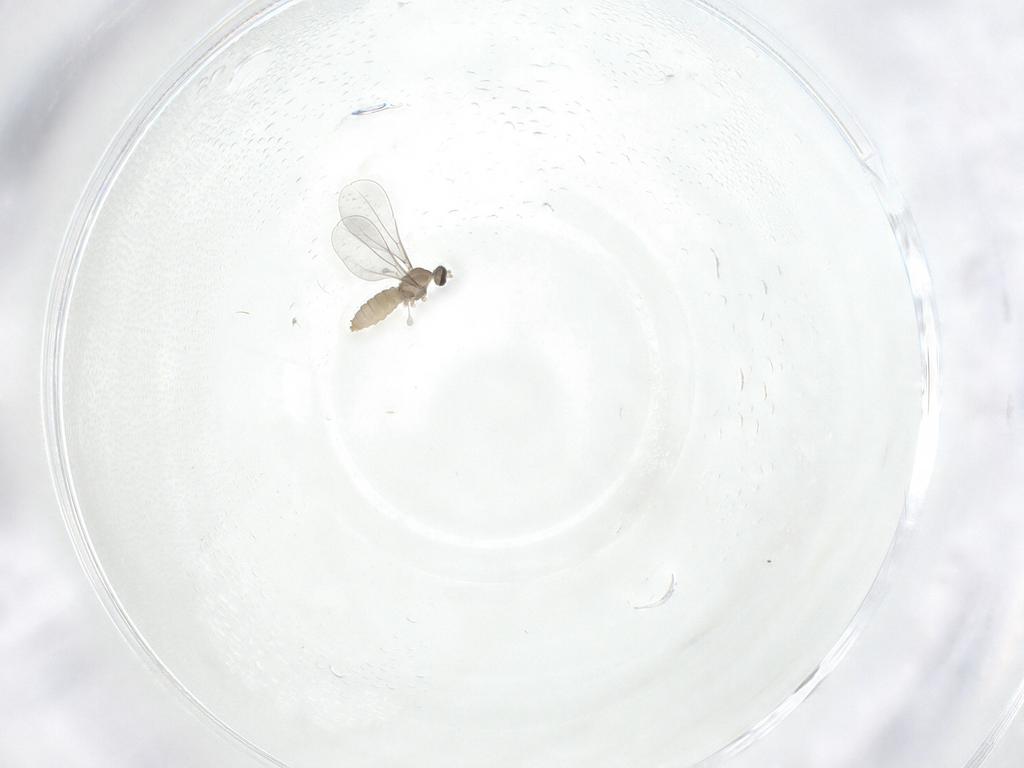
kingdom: Animalia
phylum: Arthropoda
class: Insecta
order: Diptera
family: Cecidomyiidae
